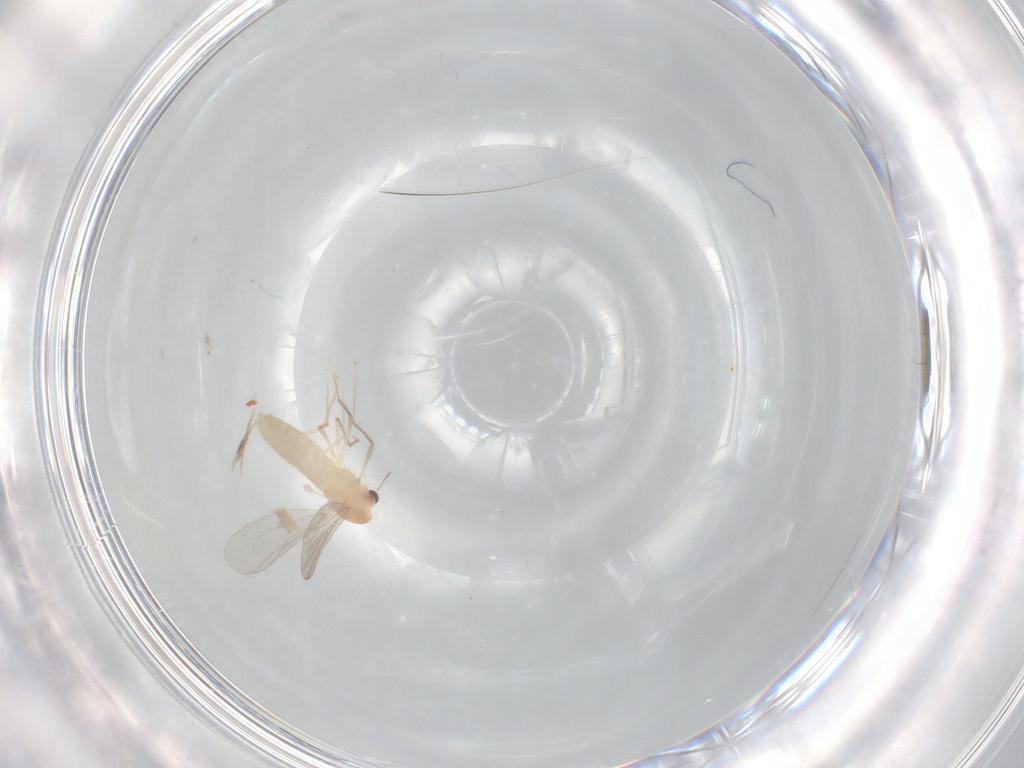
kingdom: Animalia
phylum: Arthropoda
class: Insecta
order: Diptera
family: Chironomidae
